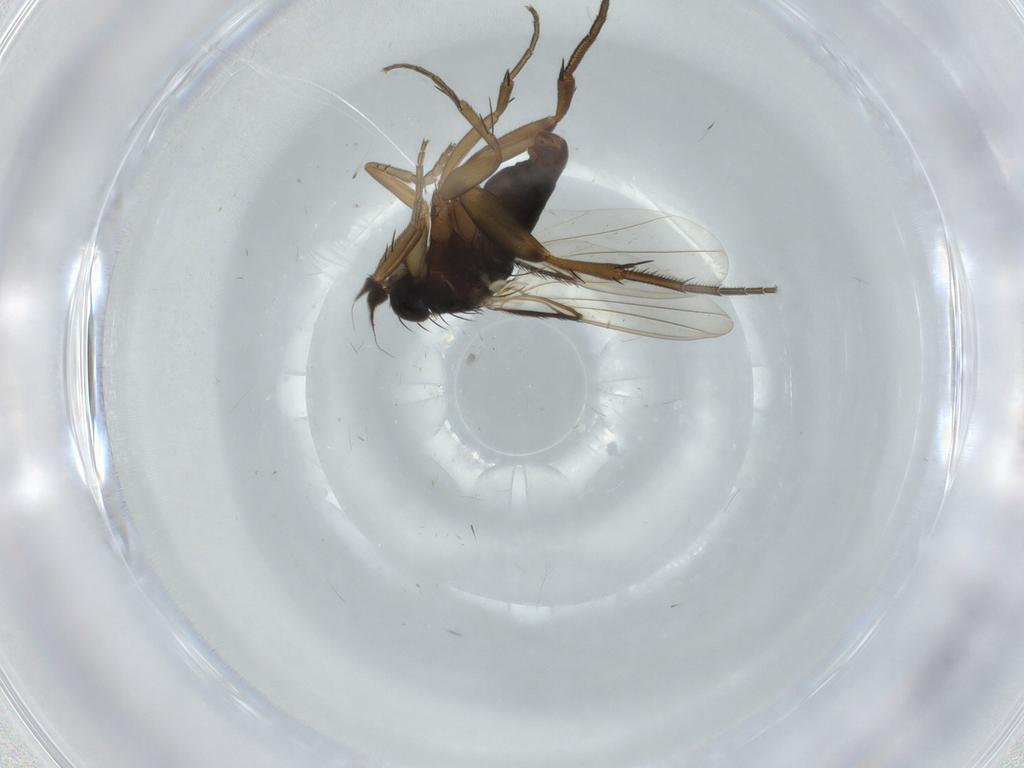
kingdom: Animalia
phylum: Arthropoda
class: Insecta
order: Diptera
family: Phoridae
